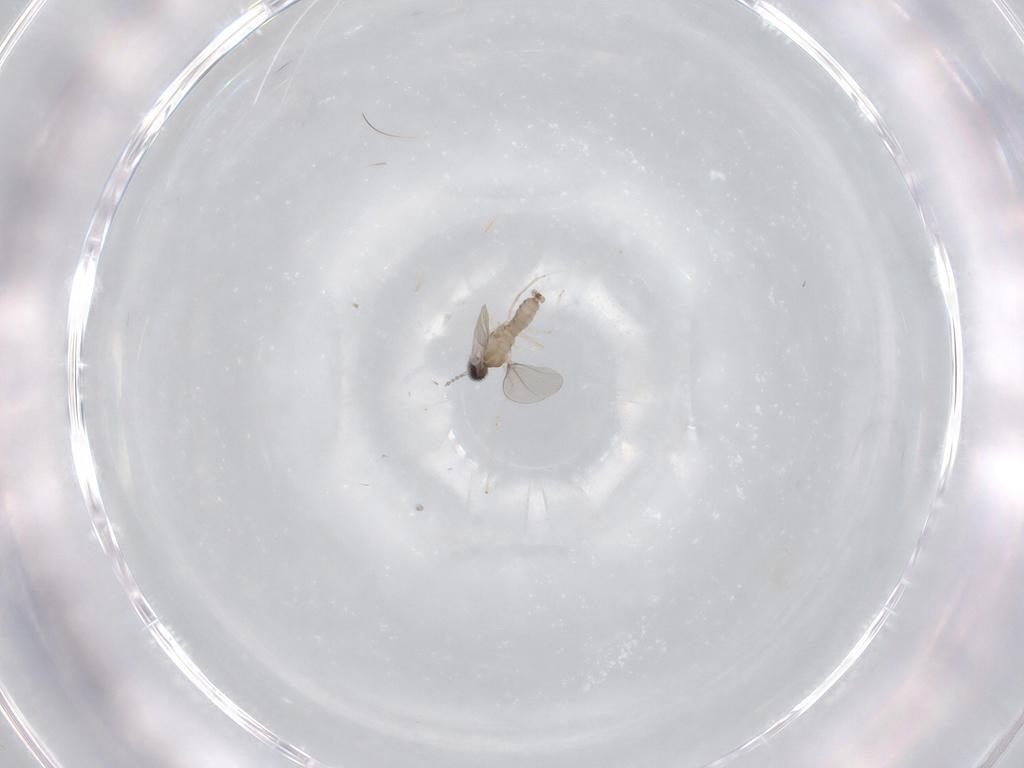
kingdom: Animalia
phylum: Arthropoda
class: Insecta
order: Diptera
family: Cecidomyiidae
